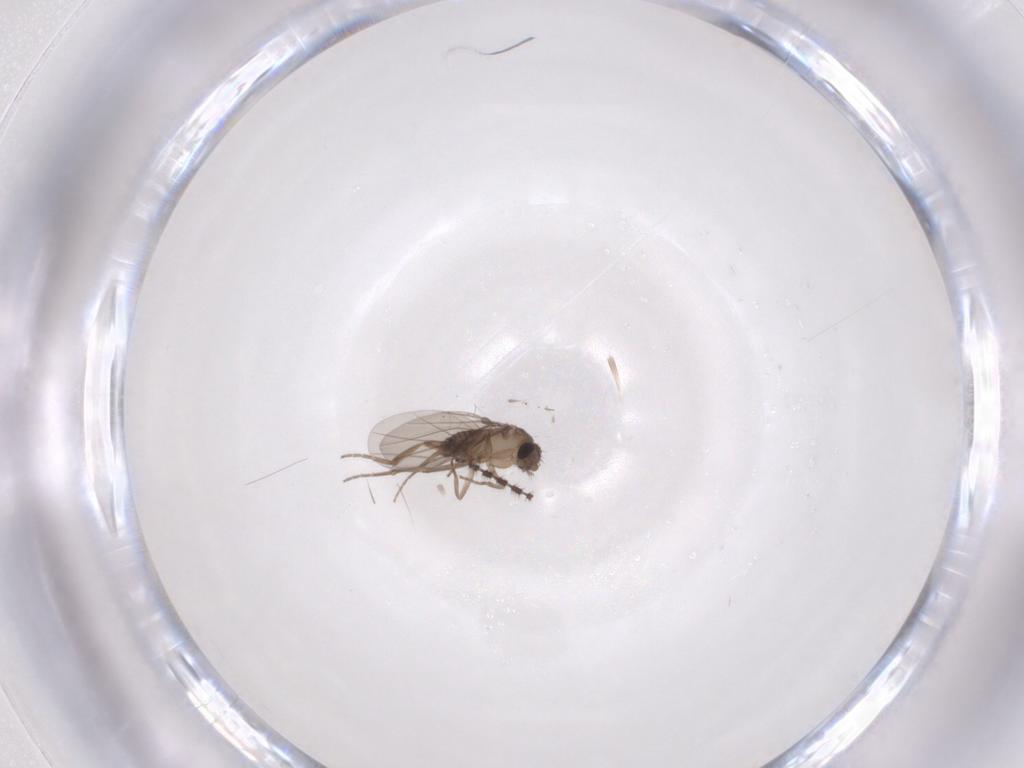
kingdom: Animalia
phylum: Arthropoda
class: Insecta
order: Diptera
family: Sciaridae
